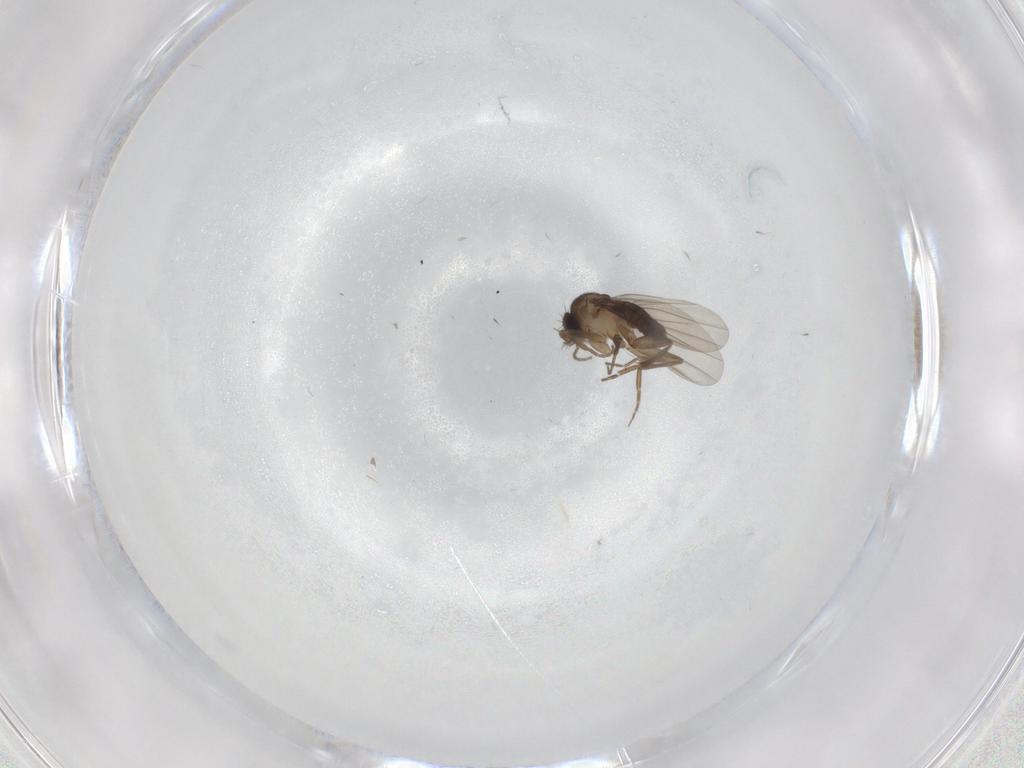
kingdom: Animalia
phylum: Arthropoda
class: Insecta
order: Diptera
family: Phoridae
